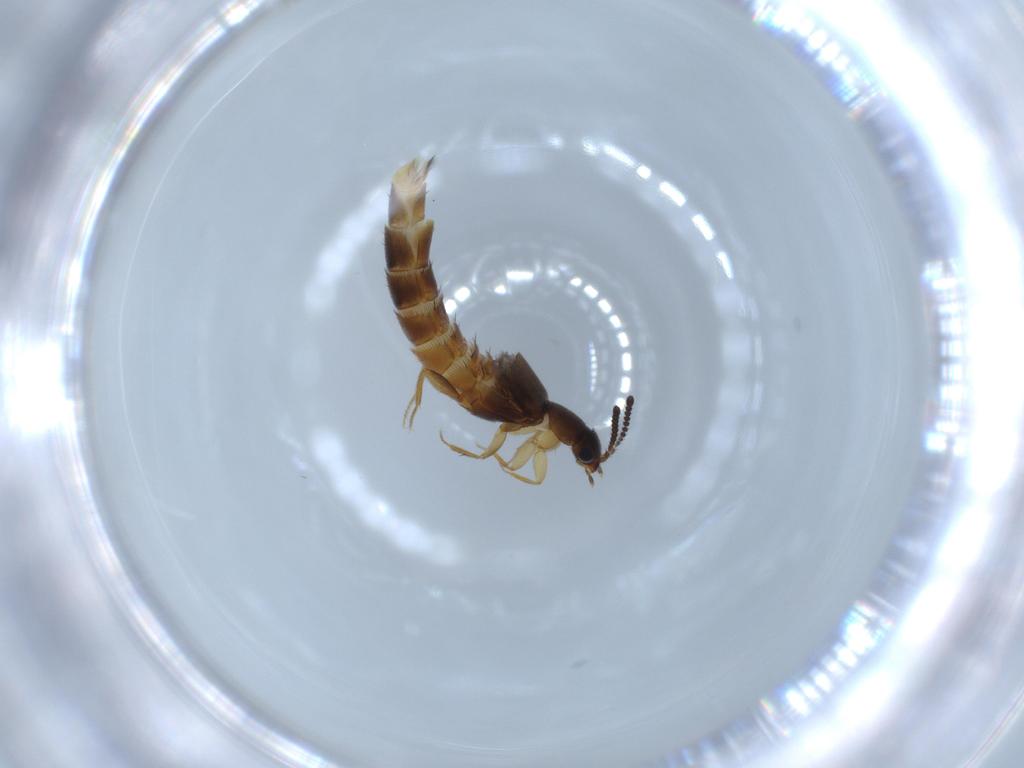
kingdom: Animalia
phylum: Arthropoda
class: Insecta
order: Coleoptera
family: Staphylinidae
